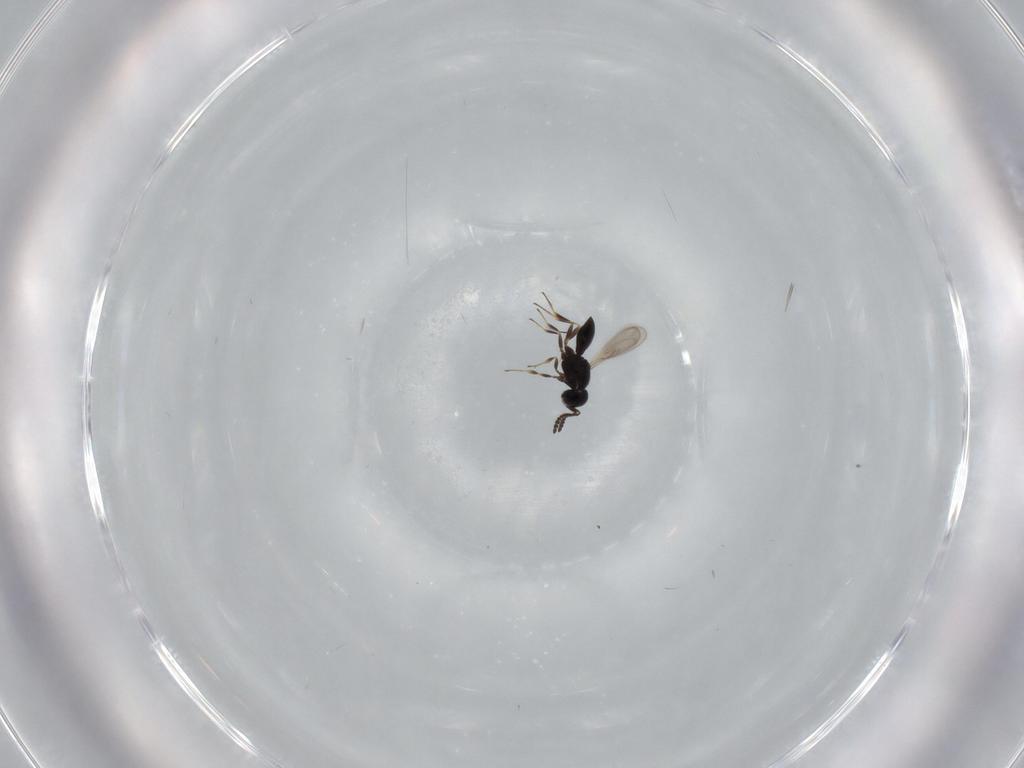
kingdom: Animalia
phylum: Arthropoda
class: Insecta
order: Hymenoptera
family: Scelionidae
